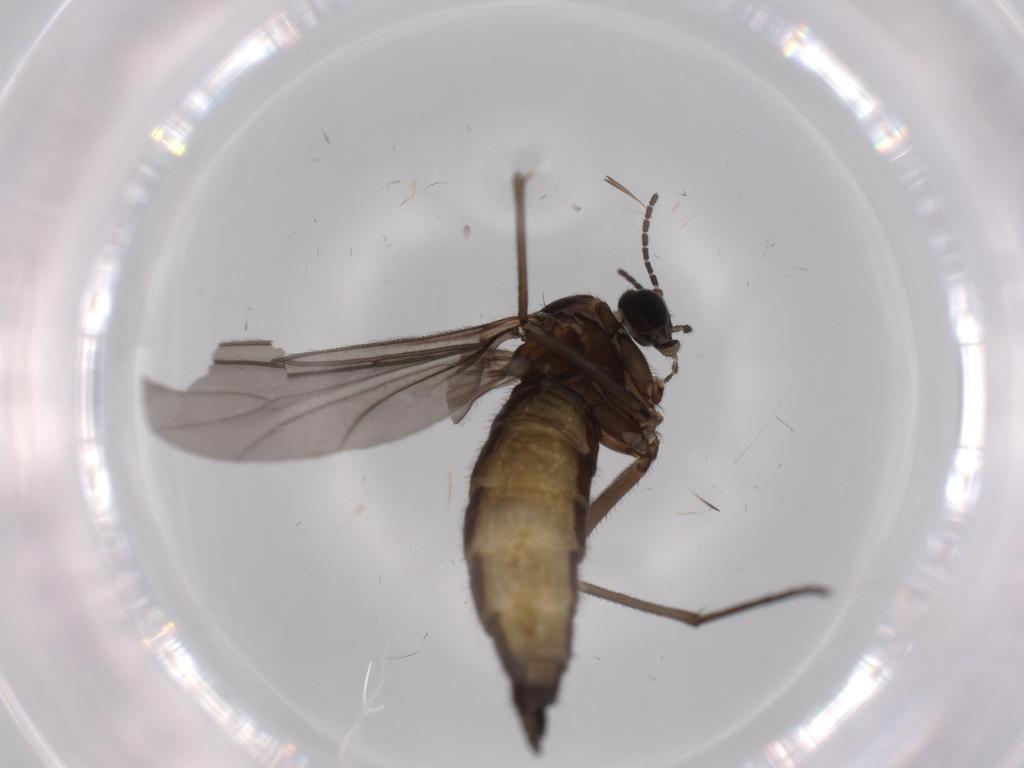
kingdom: Animalia
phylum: Arthropoda
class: Insecta
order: Diptera
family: Sciaridae
